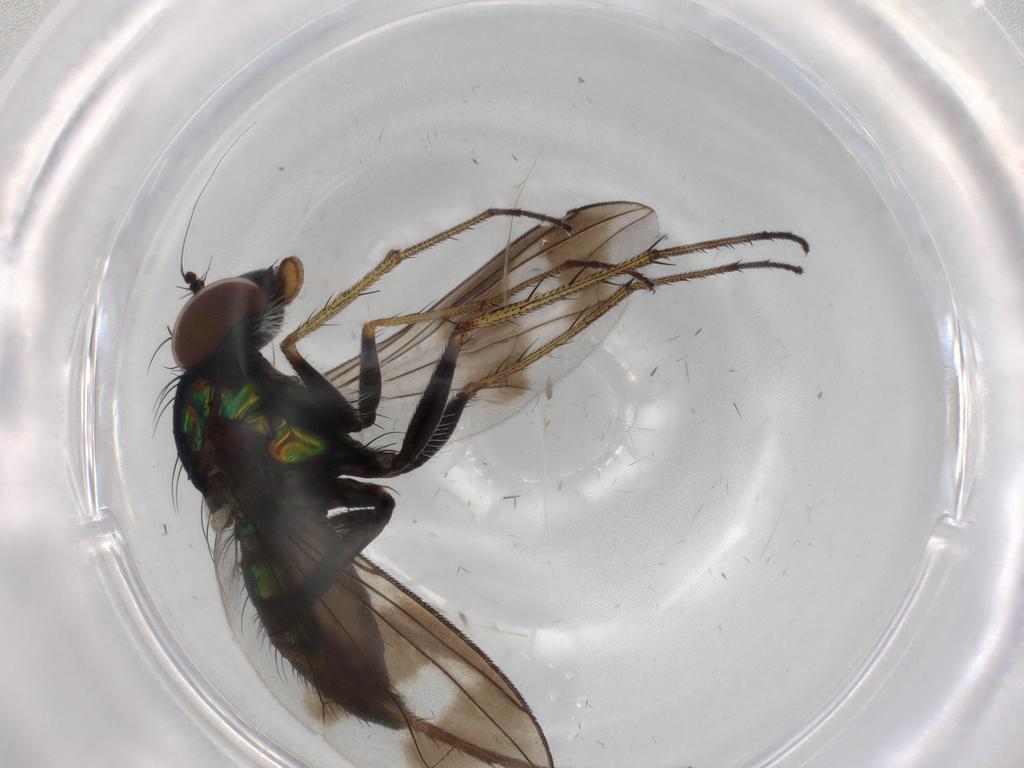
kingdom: Animalia
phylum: Arthropoda
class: Insecta
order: Diptera
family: Dolichopodidae
